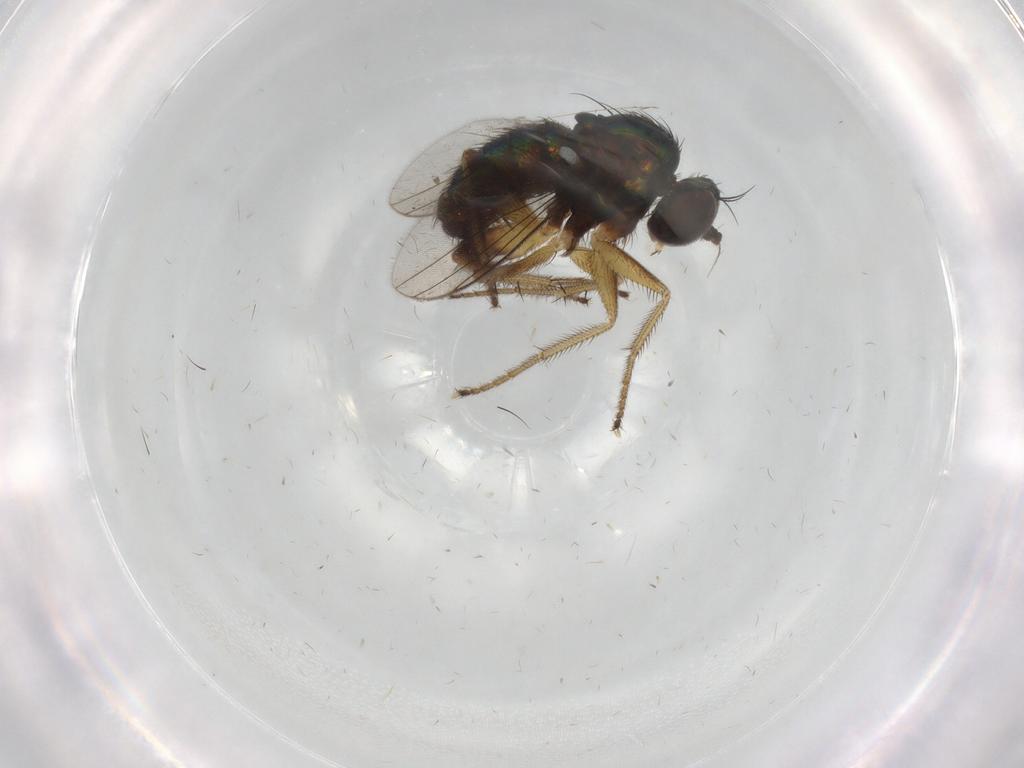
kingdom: Animalia
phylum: Arthropoda
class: Insecta
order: Diptera
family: Dolichopodidae
